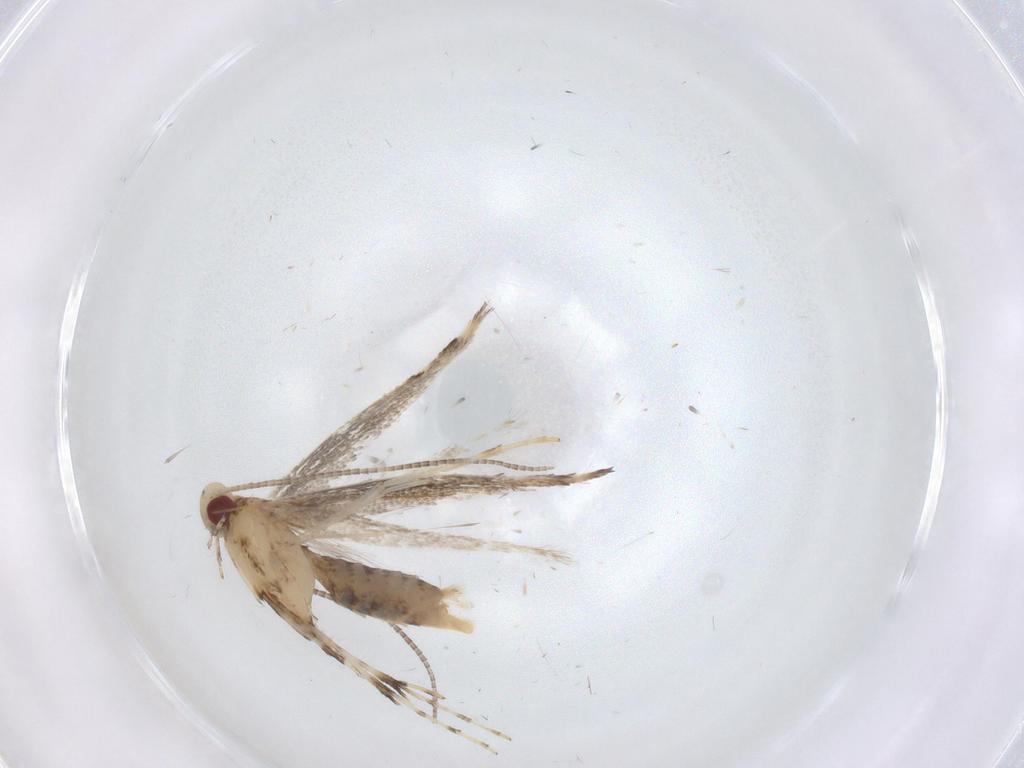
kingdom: Animalia
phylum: Arthropoda
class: Insecta
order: Lepidoptera
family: Gracillariidae
